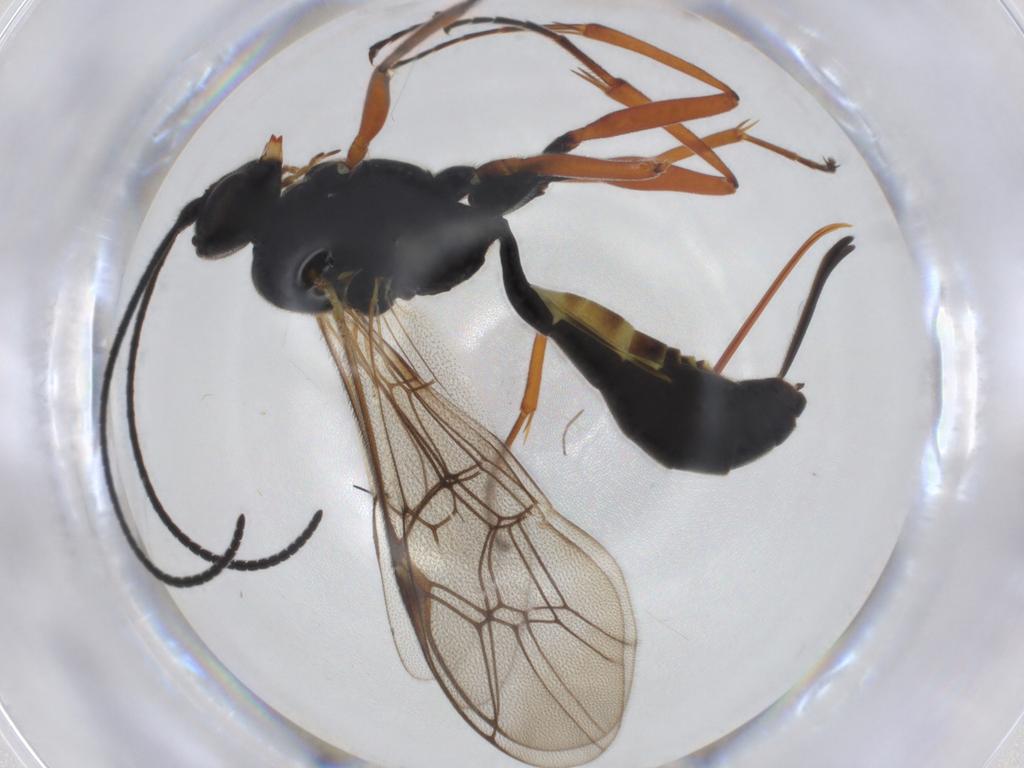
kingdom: Animalia
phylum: Arthropoda
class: Insecta
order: Hymenoptera
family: Ichneumonidae
